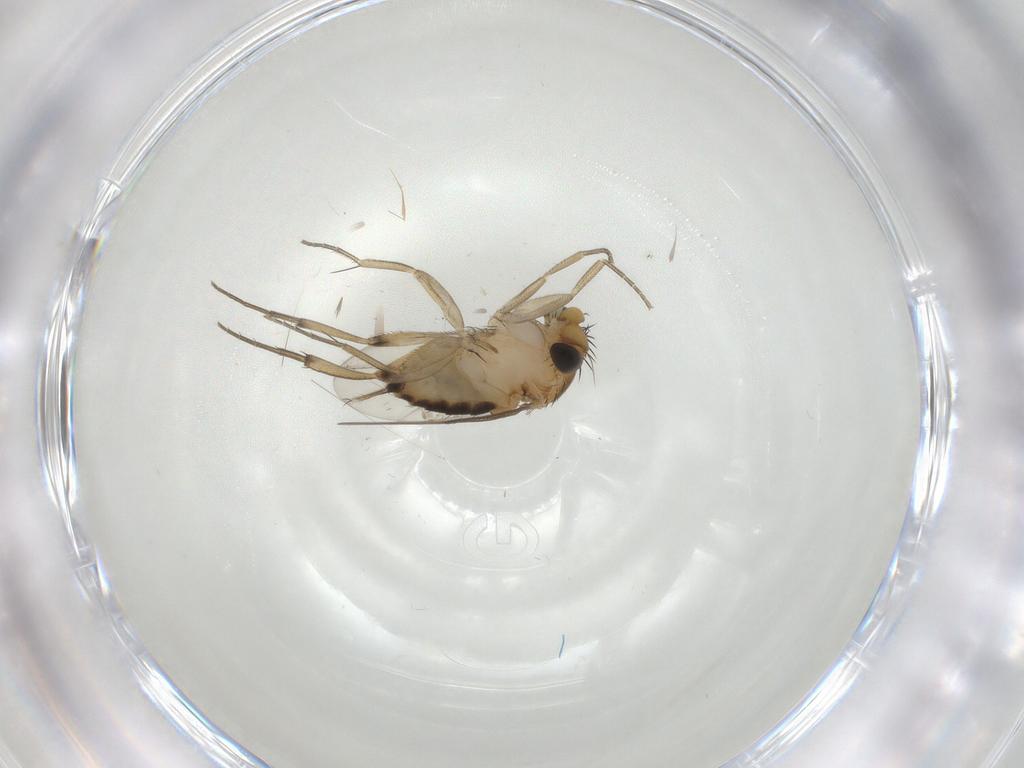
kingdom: Animalia
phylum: Arthropoda
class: Insecta
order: Diptera
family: Phoridae
